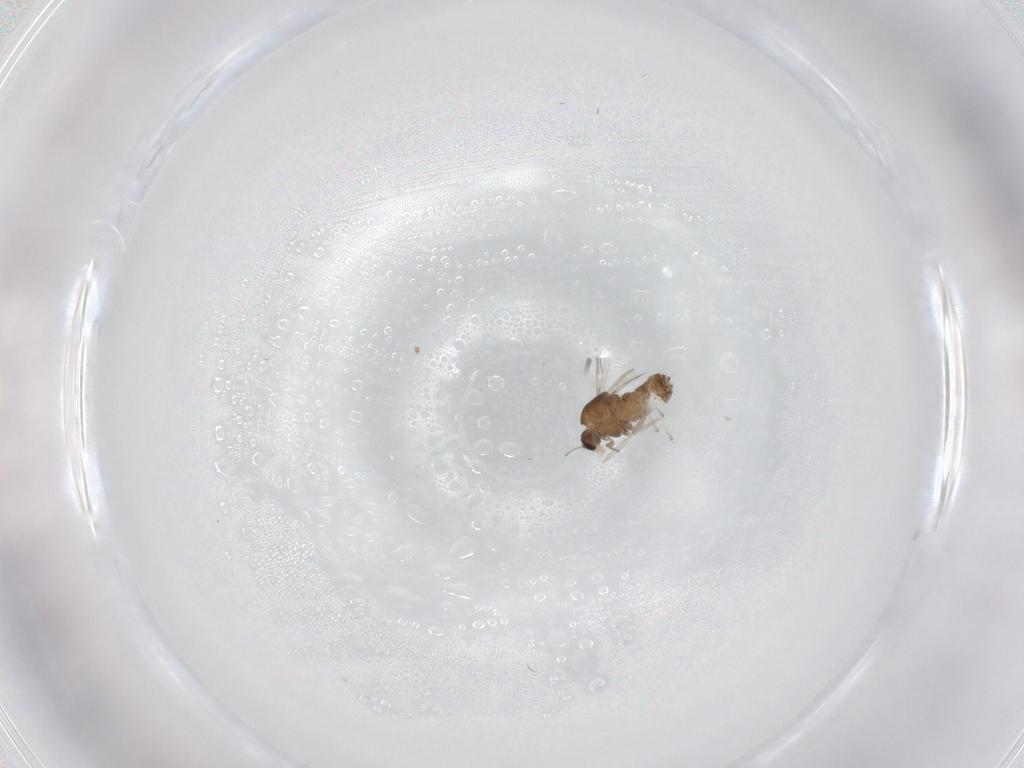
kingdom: Animalia
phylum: Arthropoda
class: Insecta
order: Diptera
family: Chironomidae
